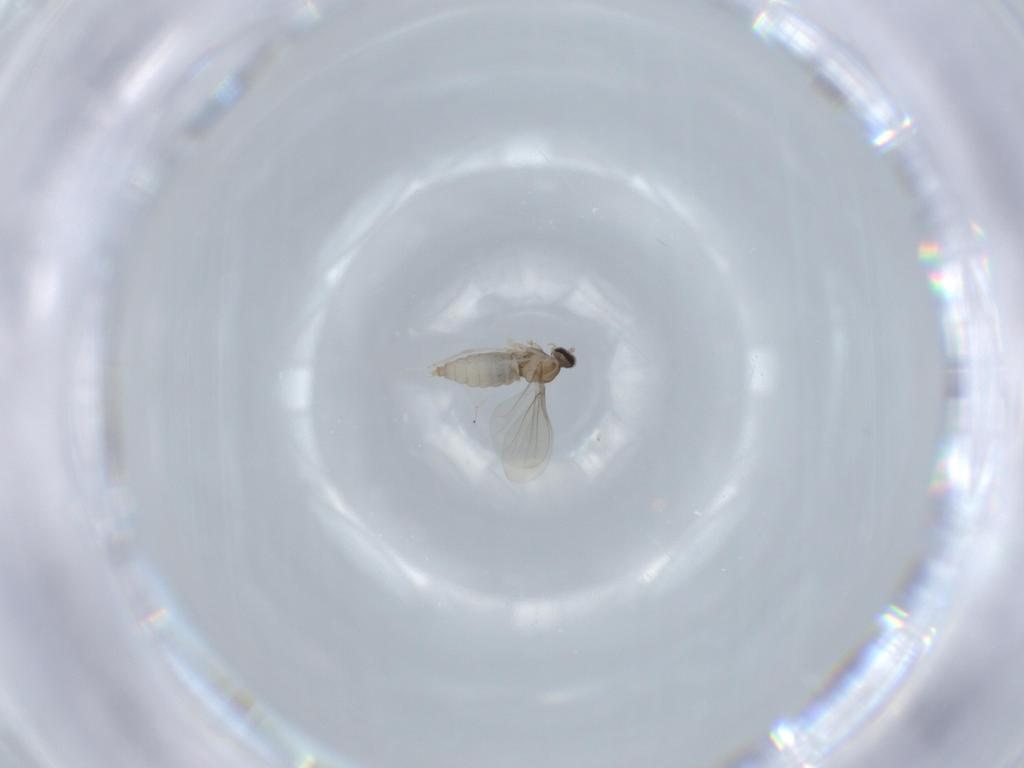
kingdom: Animalia
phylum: Arthropoda
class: Insecta
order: Diptera
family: Cecidomyiidae
